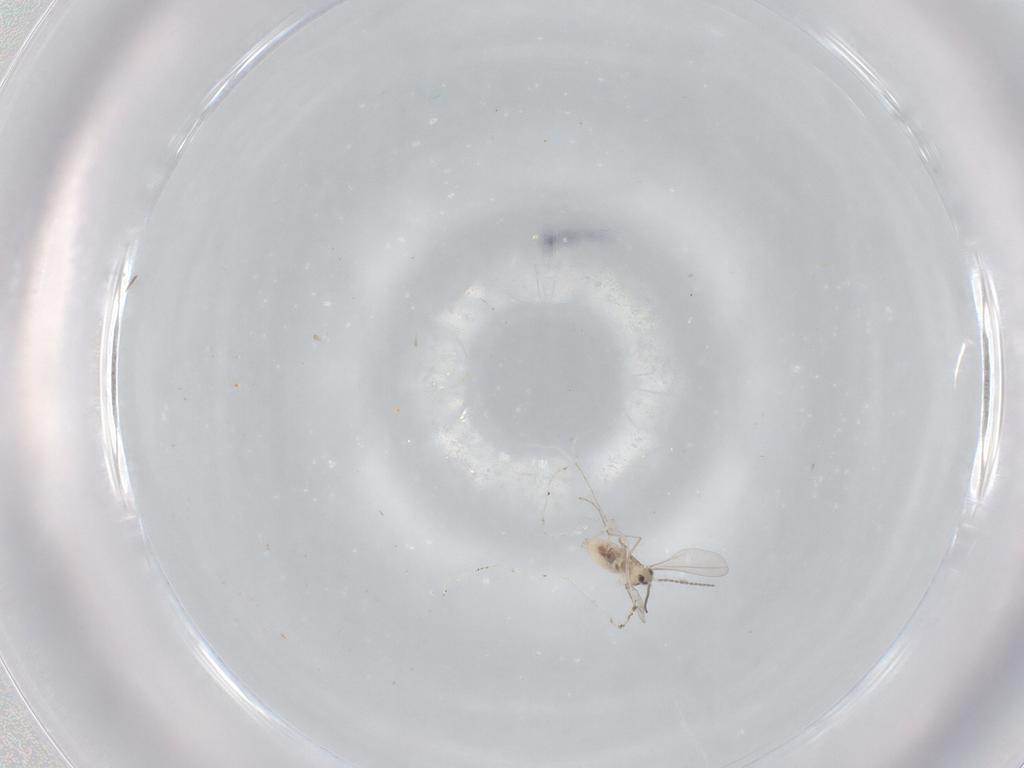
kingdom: Animalia
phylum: Arthropoda
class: Insecta
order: Diptera
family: Cecidomyiidae
